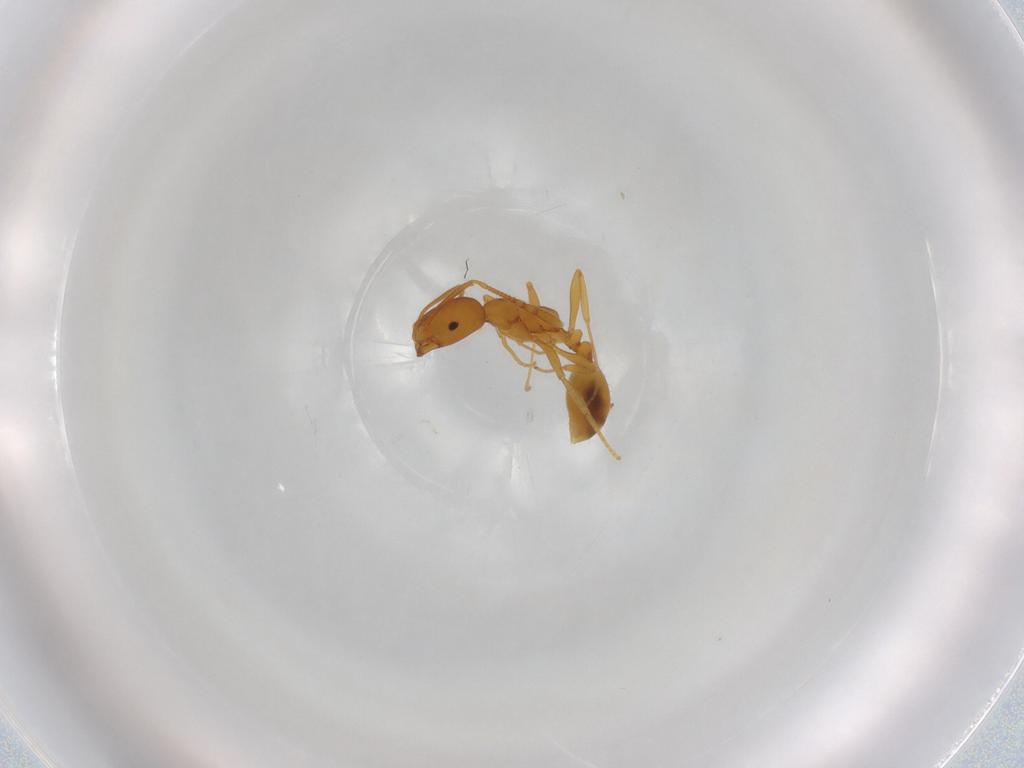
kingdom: Animalia
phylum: Arthropoda
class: Insecta
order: Hymenoptera
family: Formicidae
